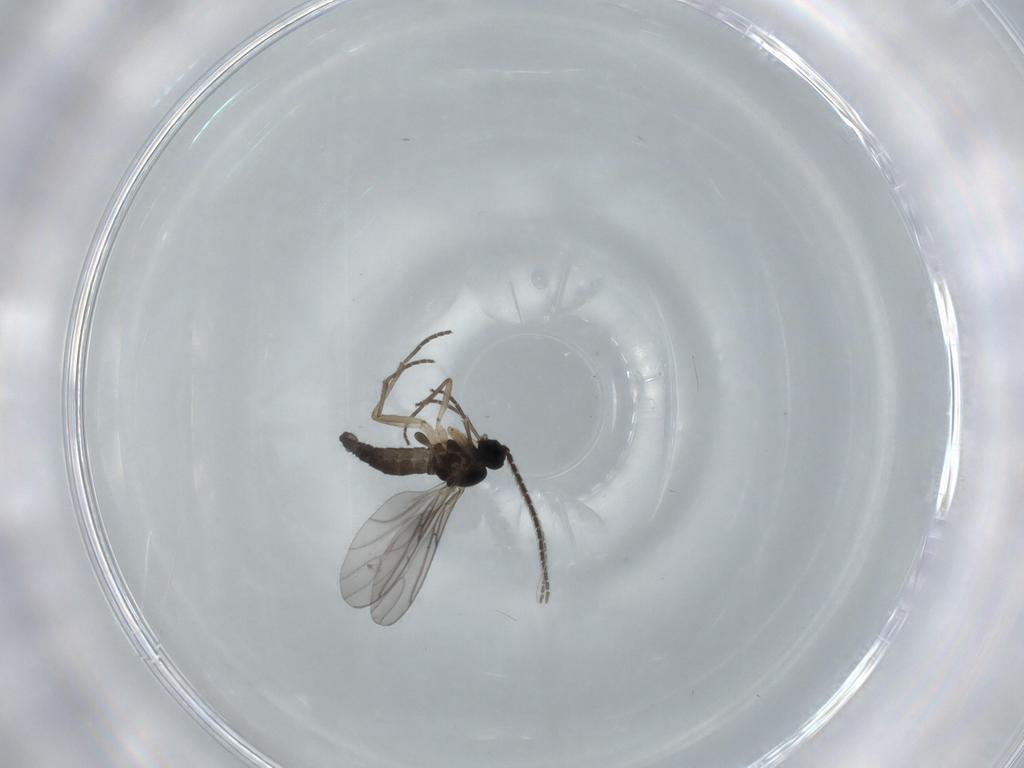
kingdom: Animalia
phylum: Arthropoda
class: Insecta
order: Diptera
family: Sciaridae
